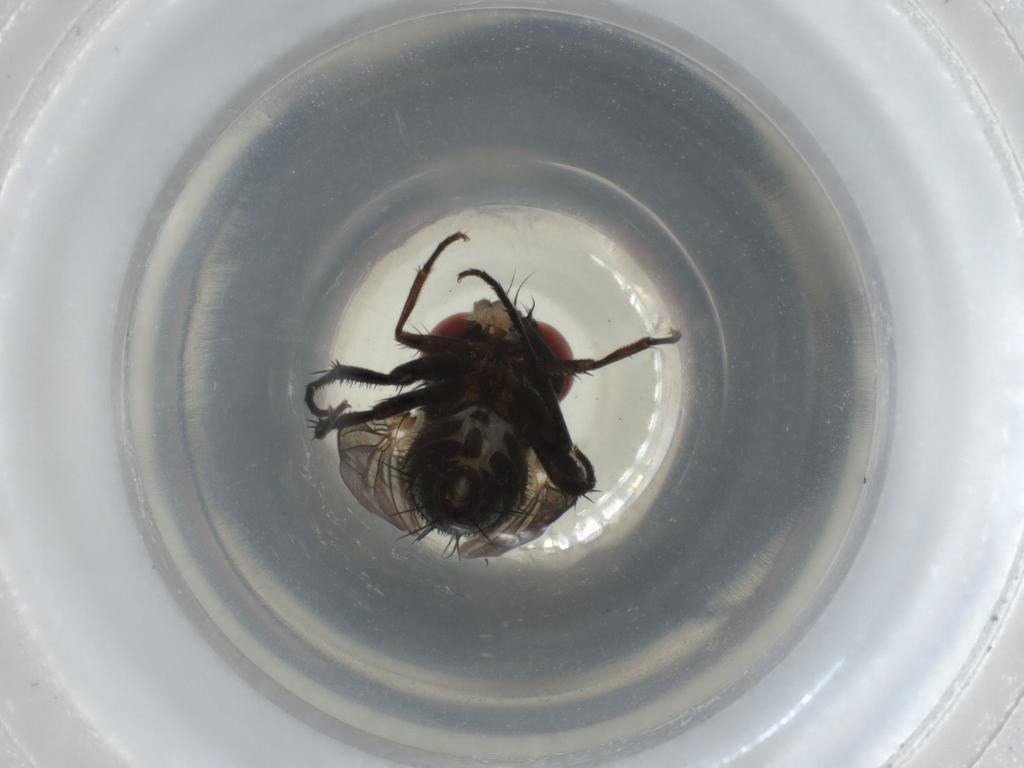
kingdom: Animalia
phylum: Arthropoda
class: Insecta
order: Diptera
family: Sarcophagidae
